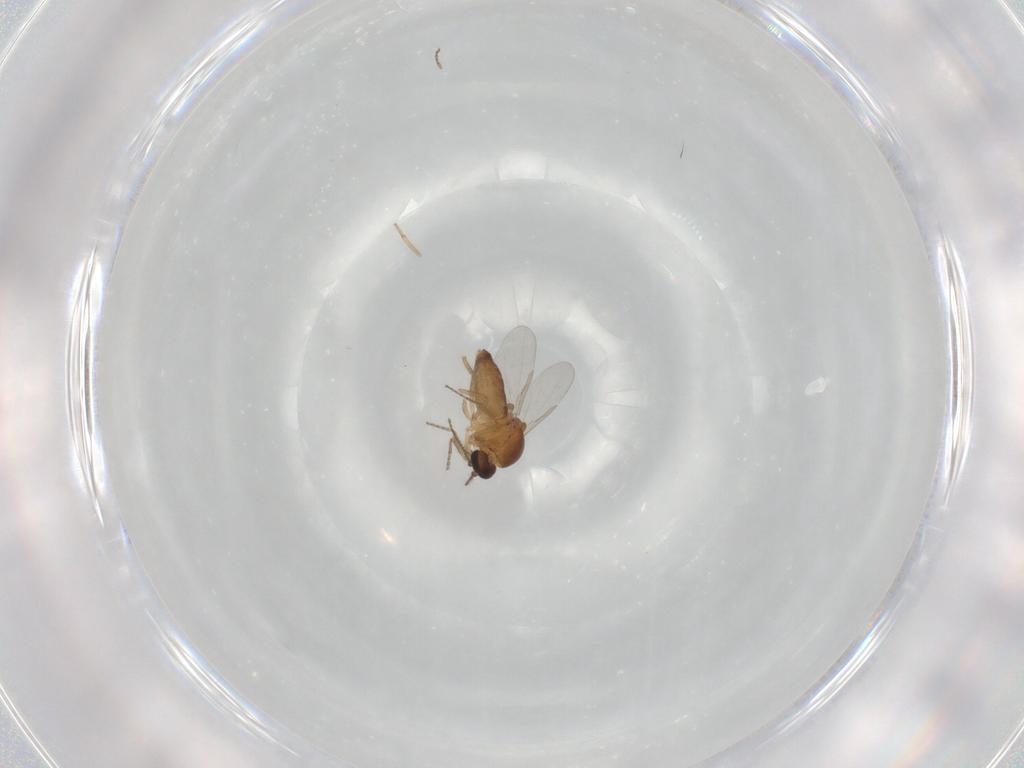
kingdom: Animalia
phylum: Arthropoda
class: Insecta
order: Diptera
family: Ceratopogonidae
